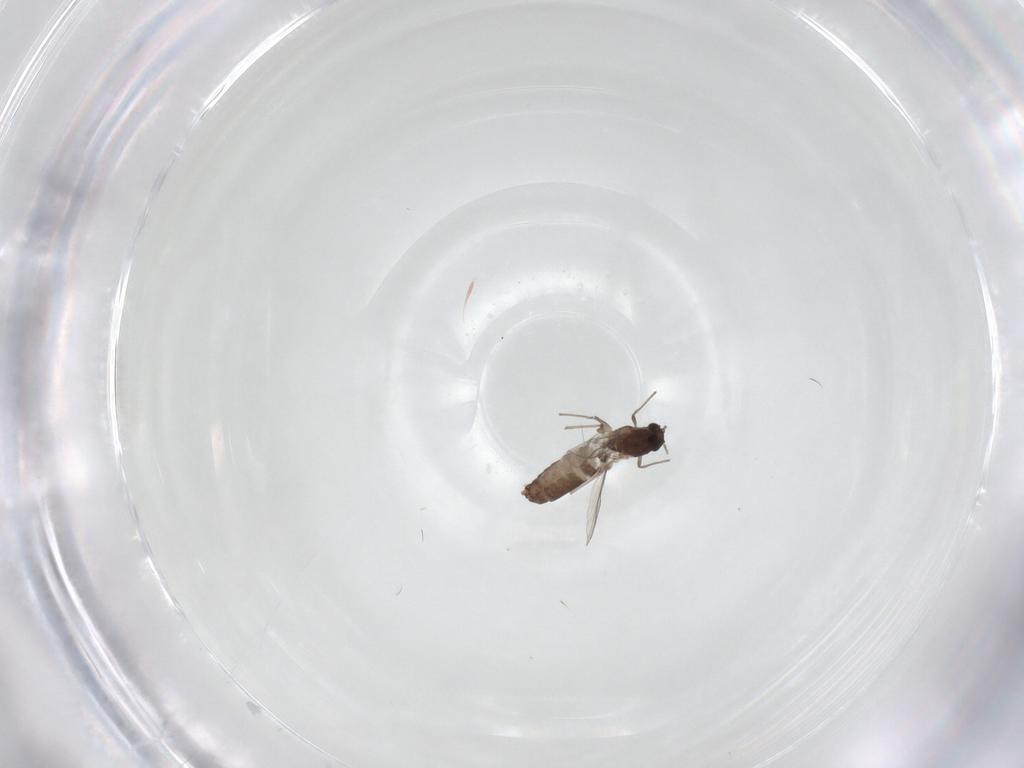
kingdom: Animalia
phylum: Arthropoda
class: Insecta
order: Diptera
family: Chironomidae
